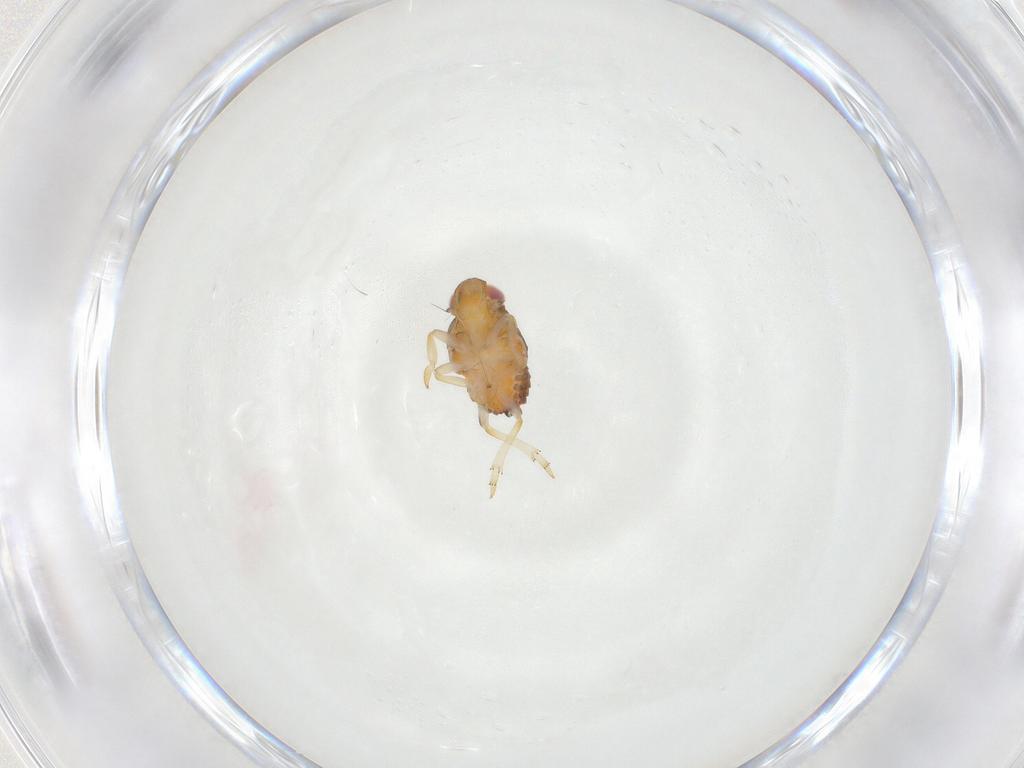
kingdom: Animalia
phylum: Arthropoda
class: Insecta
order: Hemiptera
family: Issidae
